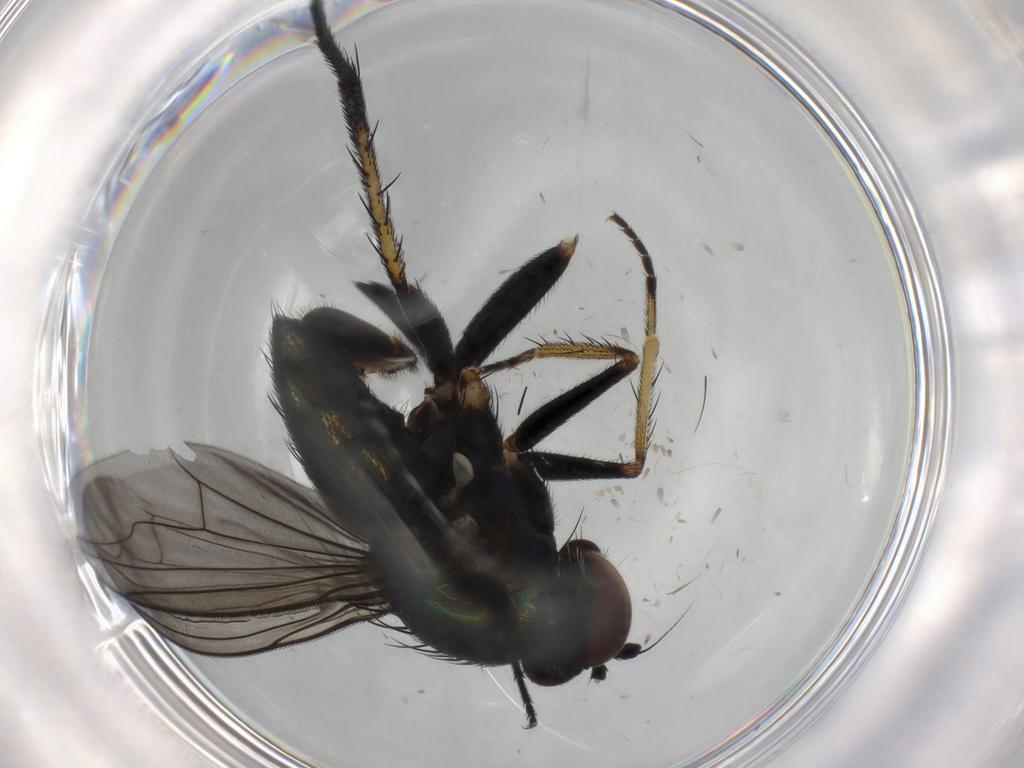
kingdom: Animalia
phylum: Arthropoda
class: Insecta
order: Diptera
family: Dolichopodidae
